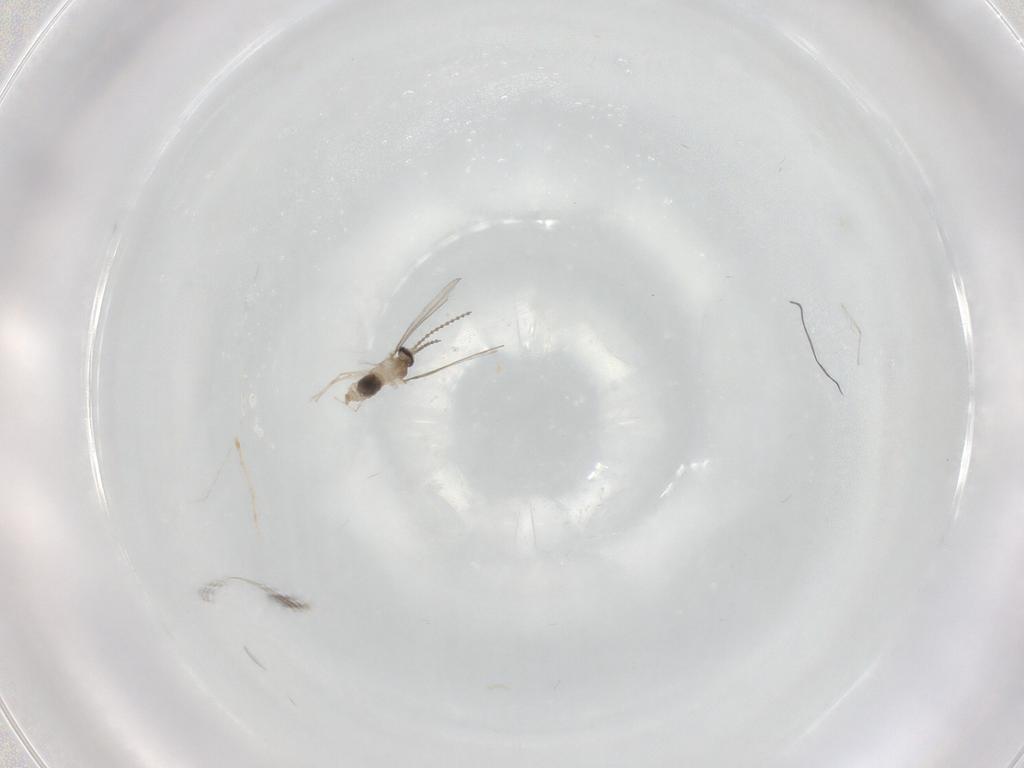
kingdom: Animalia
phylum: Arthropoda
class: Insecta
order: Diptera
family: Cecidomyiidae
